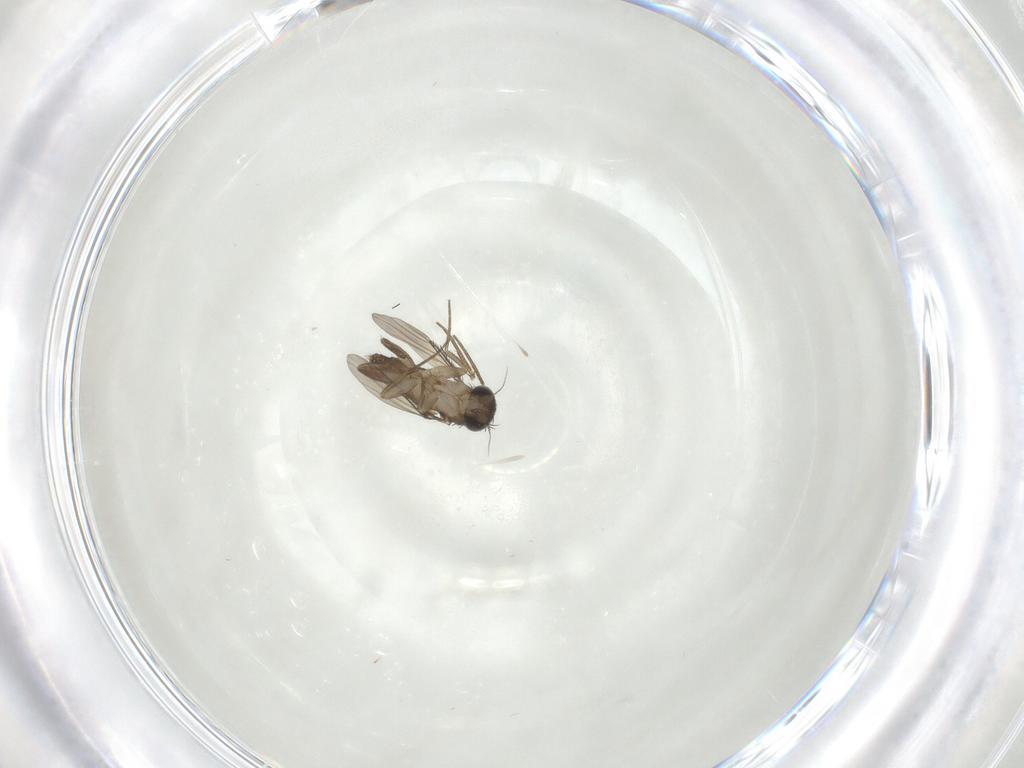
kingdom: Animalia
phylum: Arthropoda
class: Insecta
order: Diptera
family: Phoridae
